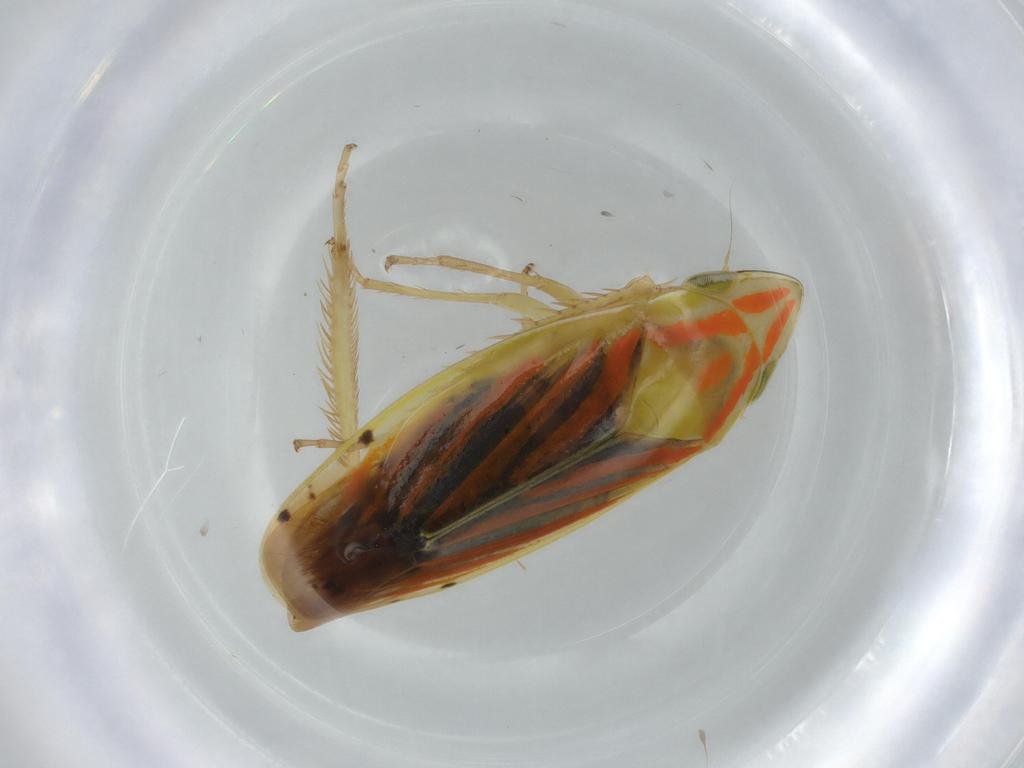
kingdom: Animalia
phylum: Arthropoda
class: Insecta
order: Hemiptera
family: Cicadellidae
